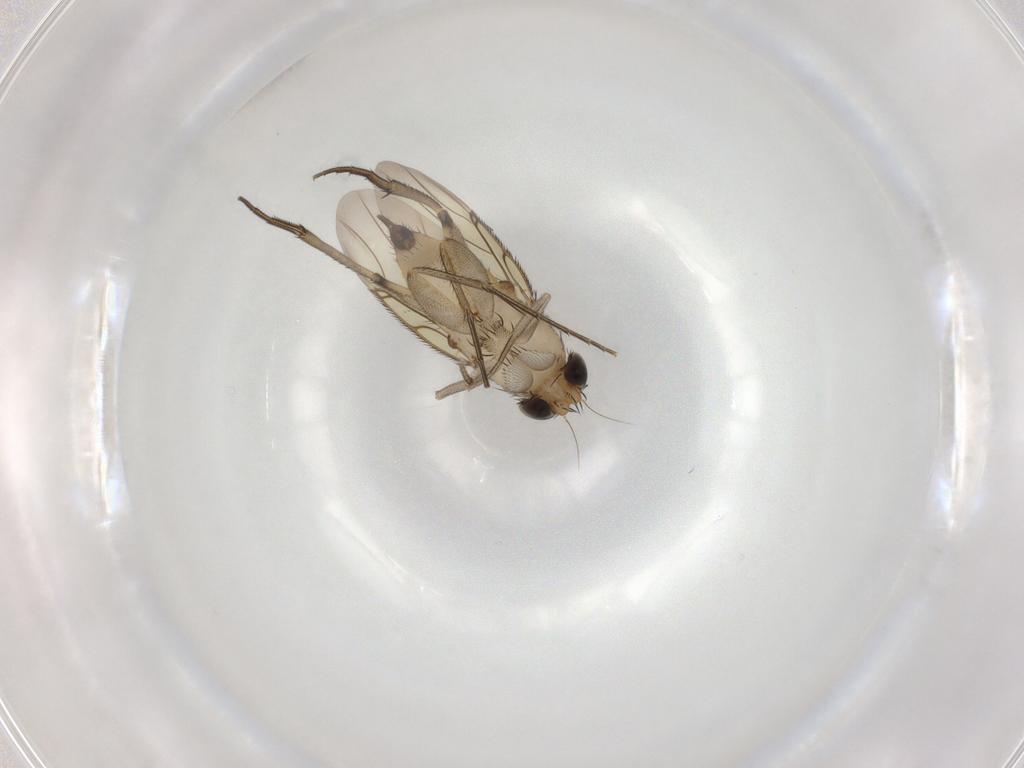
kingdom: Animalia
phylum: Arthropoda
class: Insecta
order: Diptera
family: Phoridae
